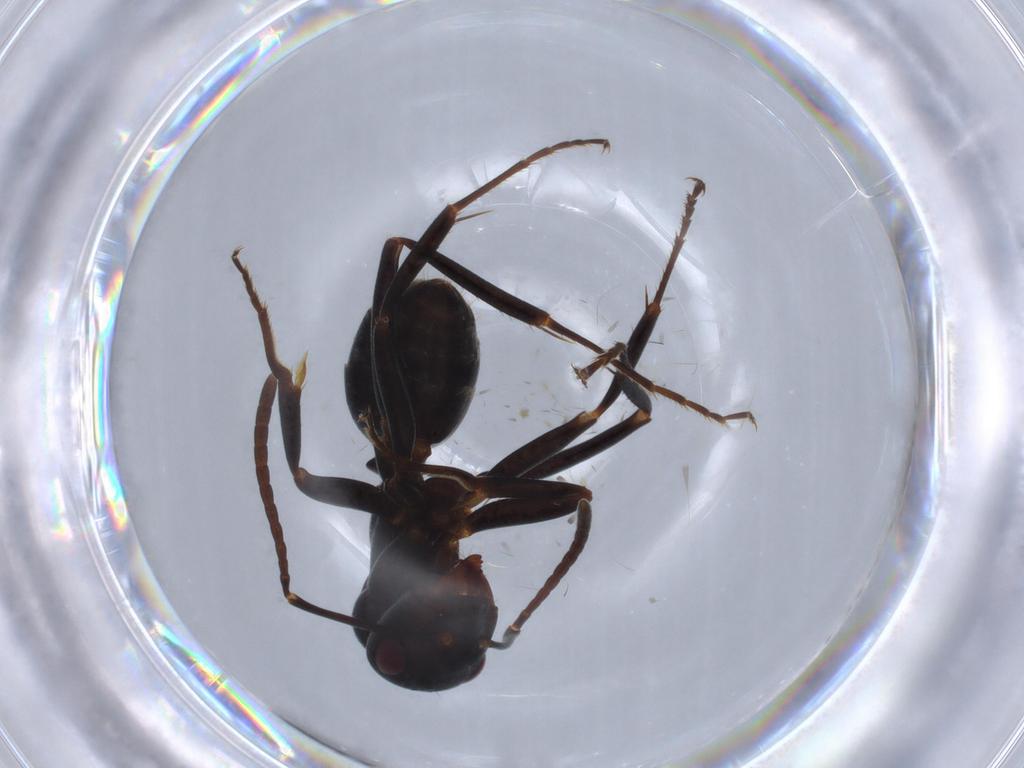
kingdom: Animalia
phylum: Arthropoda
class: Insecta
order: Hymenoptera
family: Formicidae
